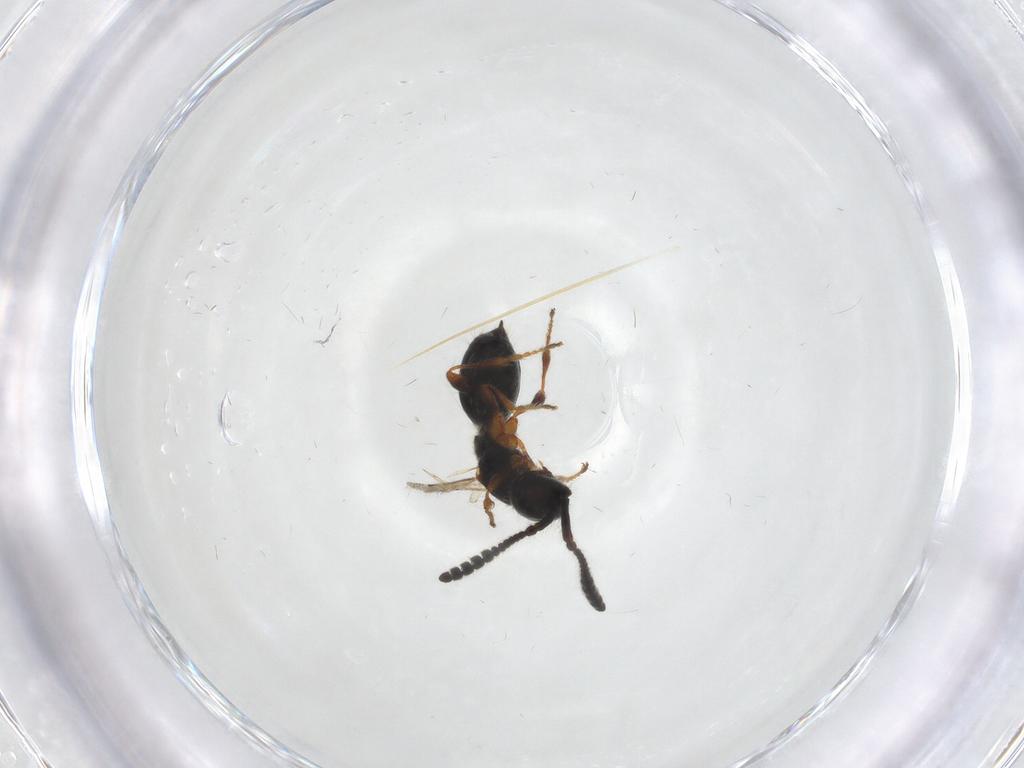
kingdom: Animalia
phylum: Arthropoda
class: Insecta
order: Hymenoptera
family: Diapriidae
